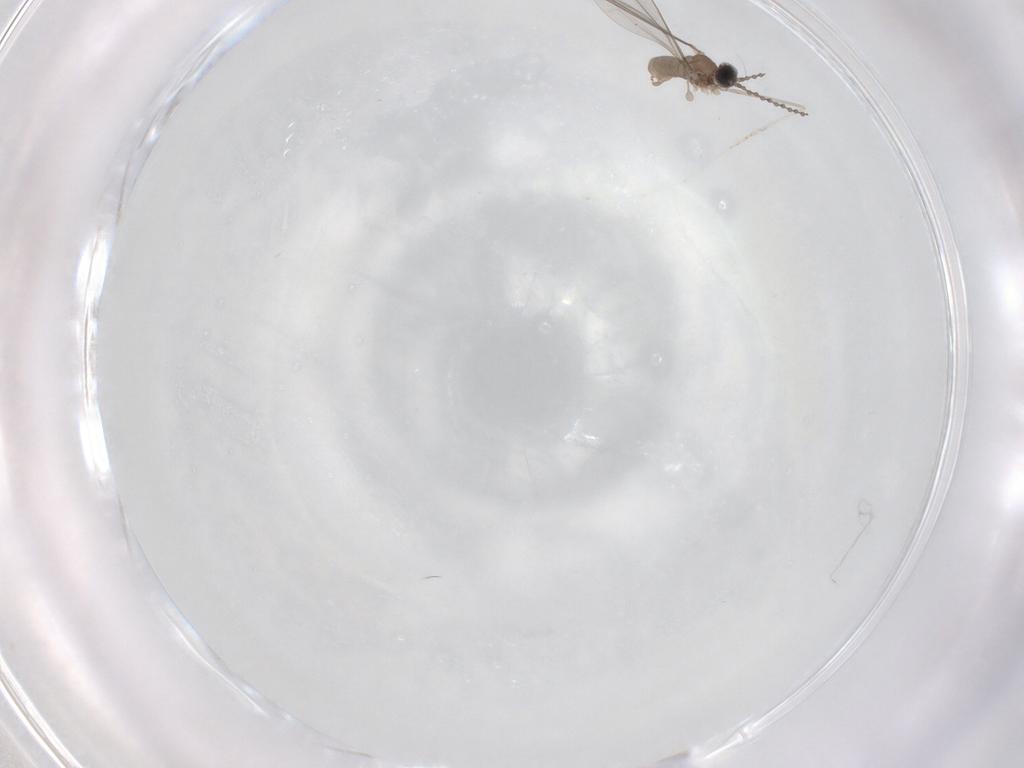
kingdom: Animalia
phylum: Arthropoda
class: Insecta
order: Diptera
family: Cecidomyiidae
